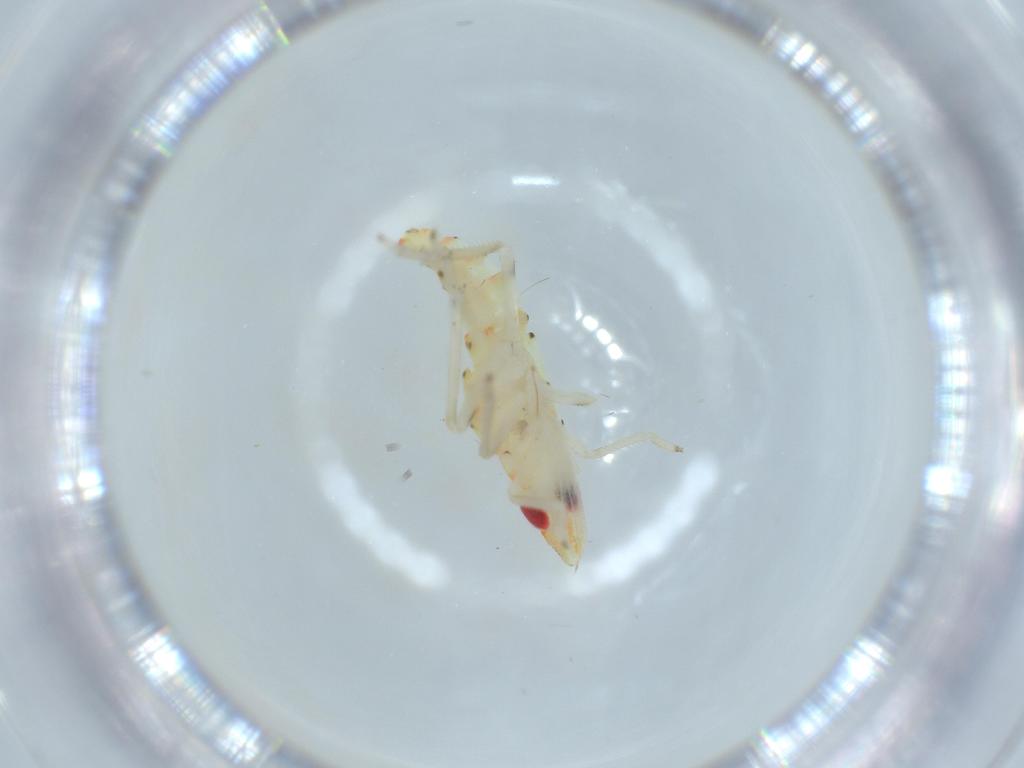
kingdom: Animalia
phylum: Arthropoda
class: Insecta
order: Hemiptera
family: Tropiduchidae
